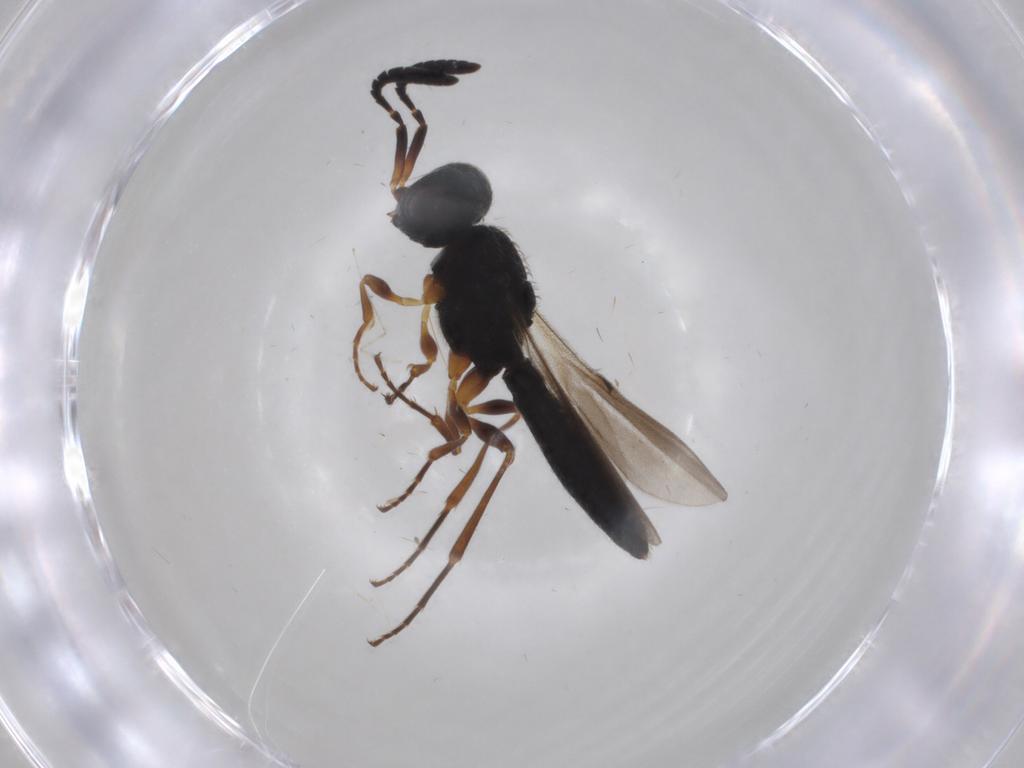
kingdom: Animalia
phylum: Arthropoda
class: Insecta
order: Hymenoptera
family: Scelionidae
